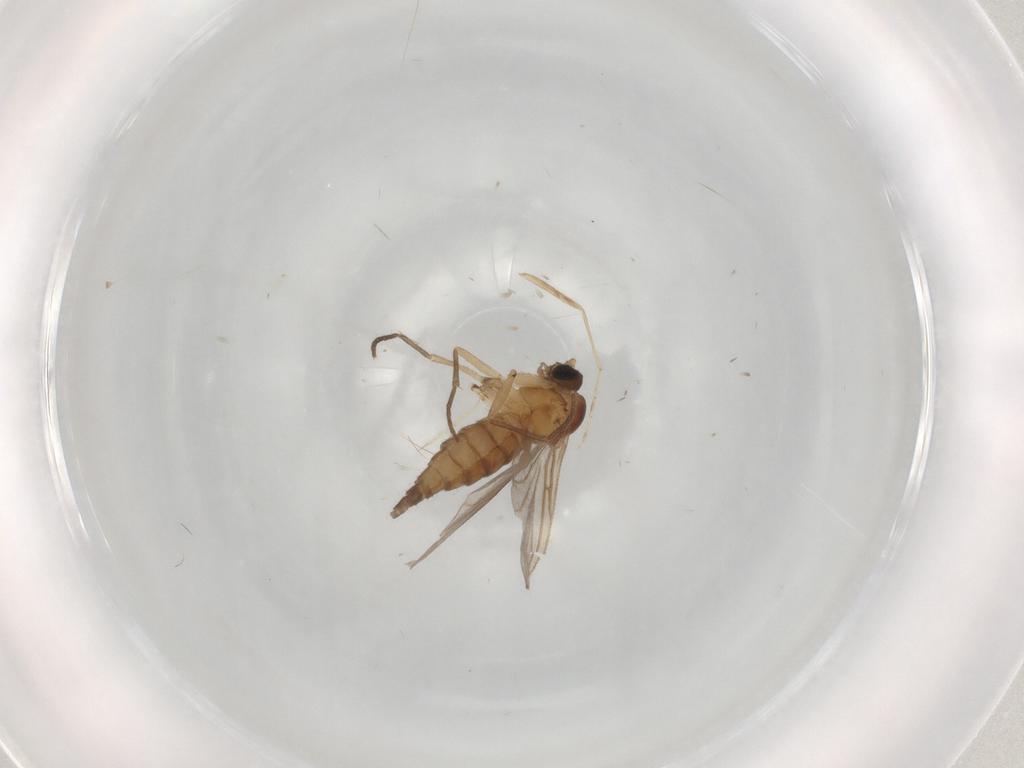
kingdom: Animalia
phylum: Arthropoda
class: Insecta
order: Diptera
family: Psychodidae
